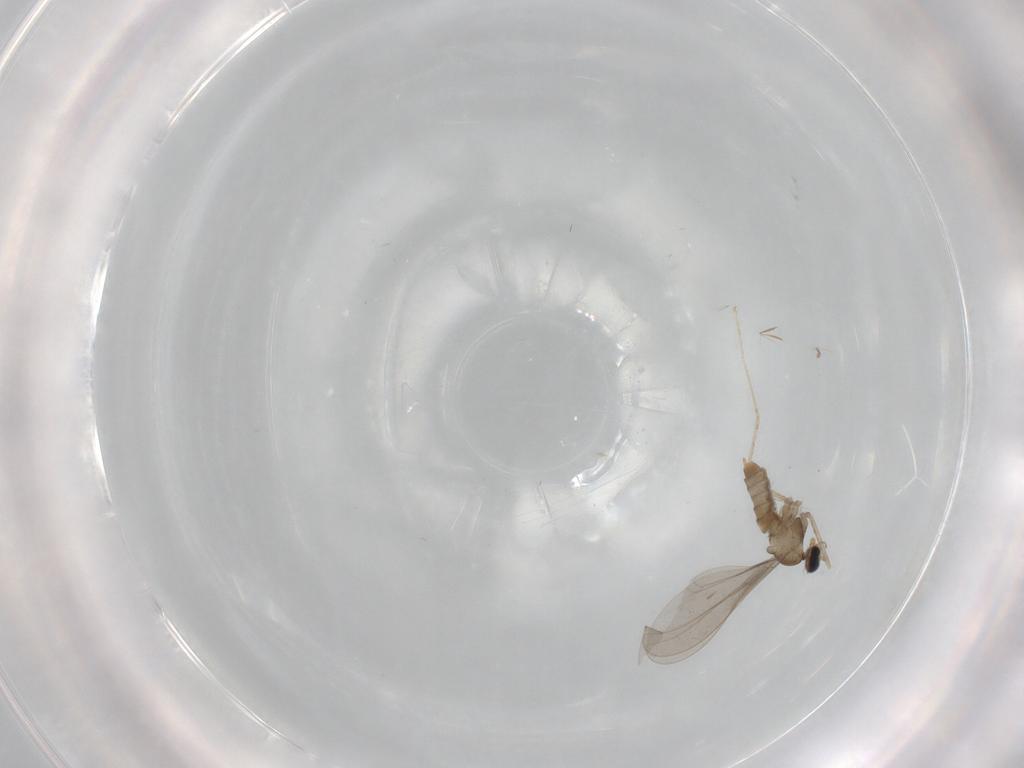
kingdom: Animalia
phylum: Arthropoda
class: Insecta
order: Diptera
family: Cecidomyiidae
